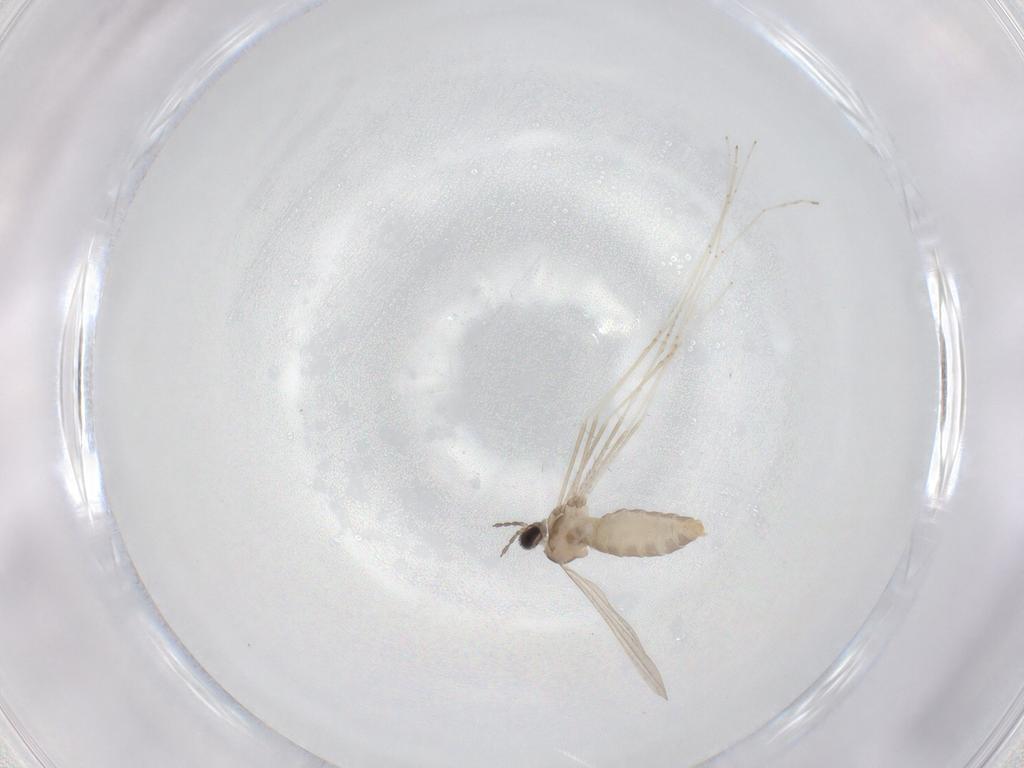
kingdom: Animalia
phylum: Arthropoda
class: Insecta
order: Diptera
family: Cecidomyiidae
